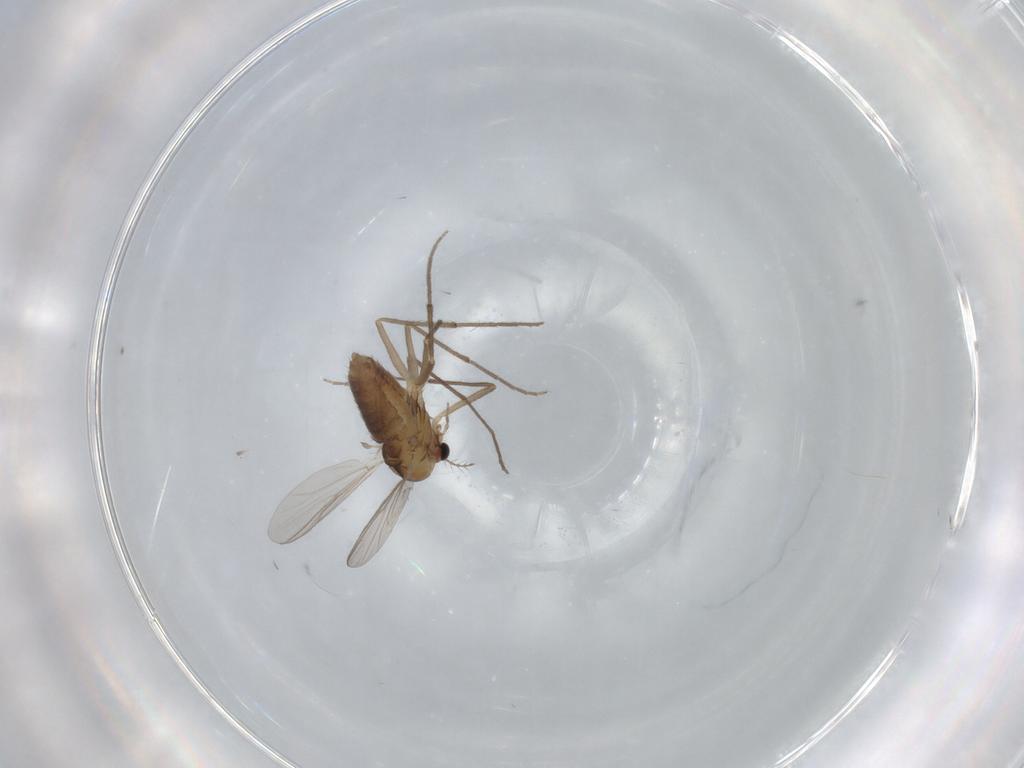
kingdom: Animalia
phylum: Arthropoda
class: Insecta
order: Diptera
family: Chironomidae
